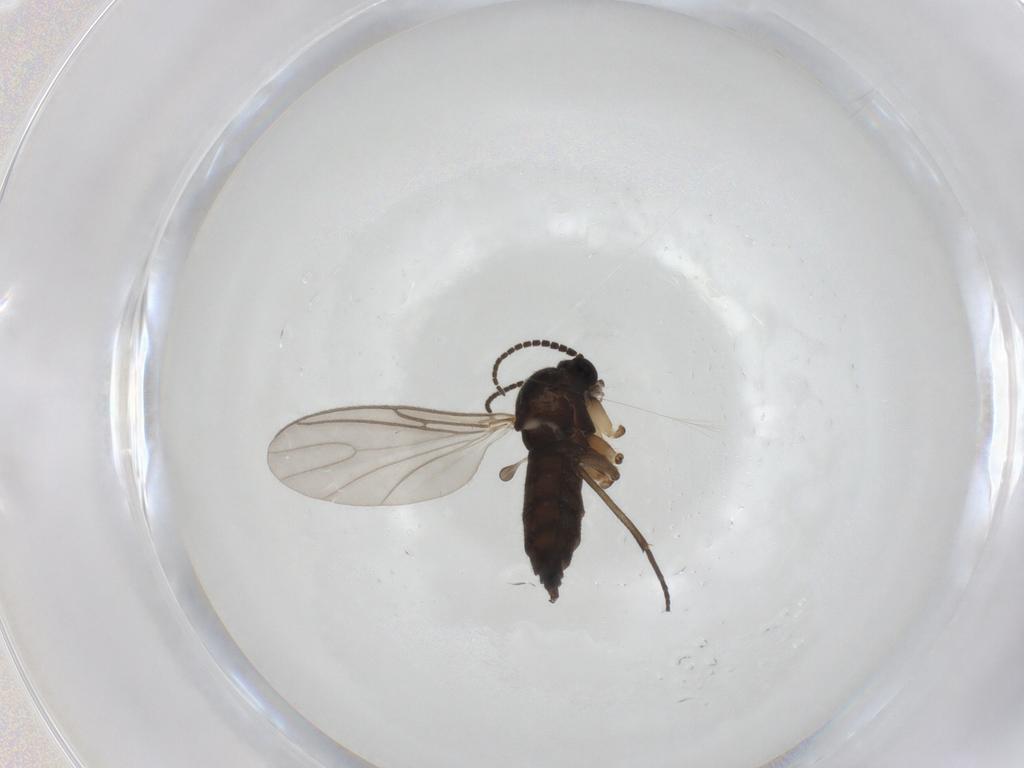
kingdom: Animalia
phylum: Arthropoda
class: Insecta
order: Diptera
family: Sciaridae
